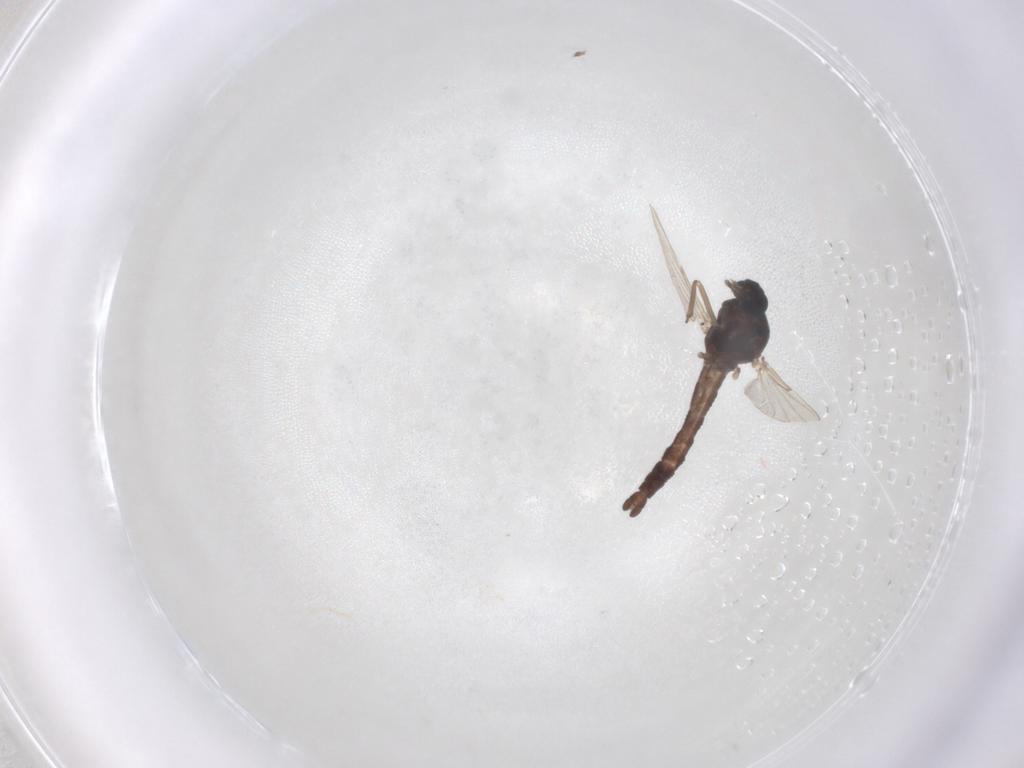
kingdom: Animalia
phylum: Arthropoda
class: Insecta
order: Diptera
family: Ceratopogonidae
